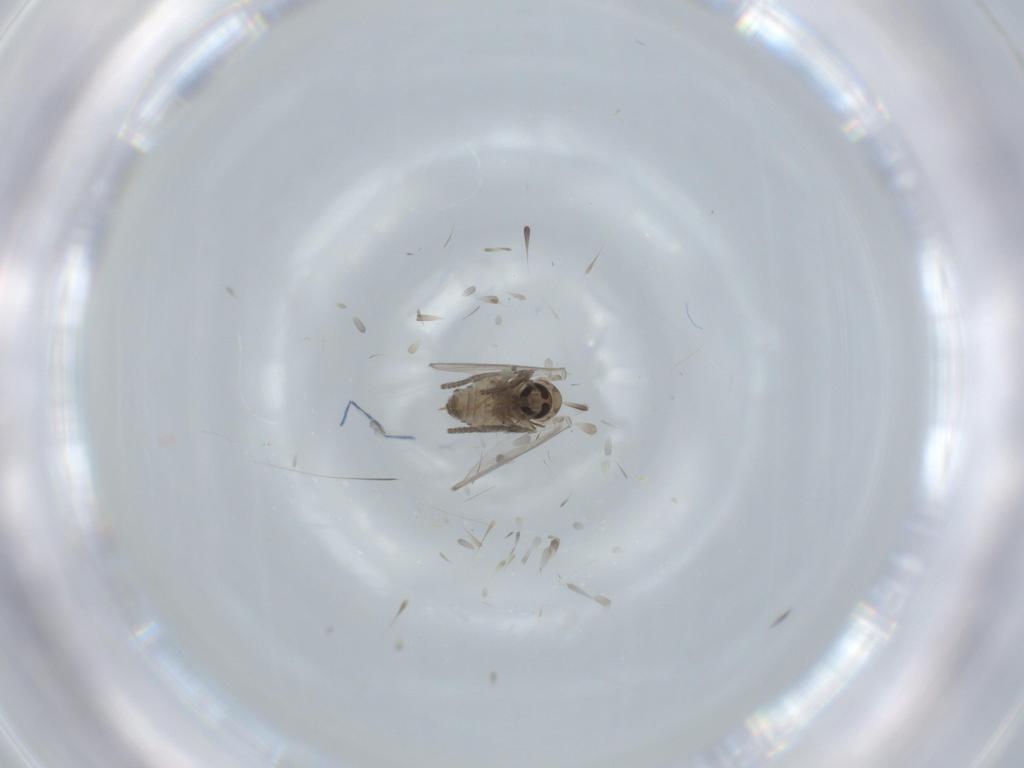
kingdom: Animalia
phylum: Arthropoda
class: Insecta
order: Diptera
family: Psychodidae
